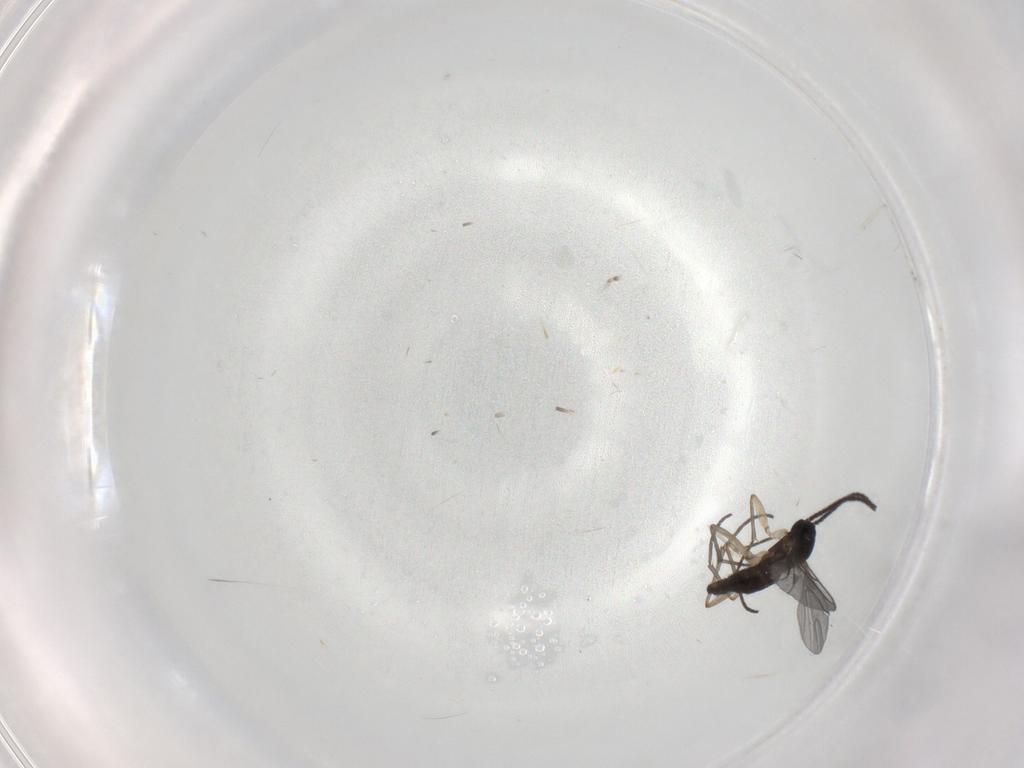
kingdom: Animalia
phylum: Arthropoda
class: Insecta
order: Diptera
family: Sciaridae
